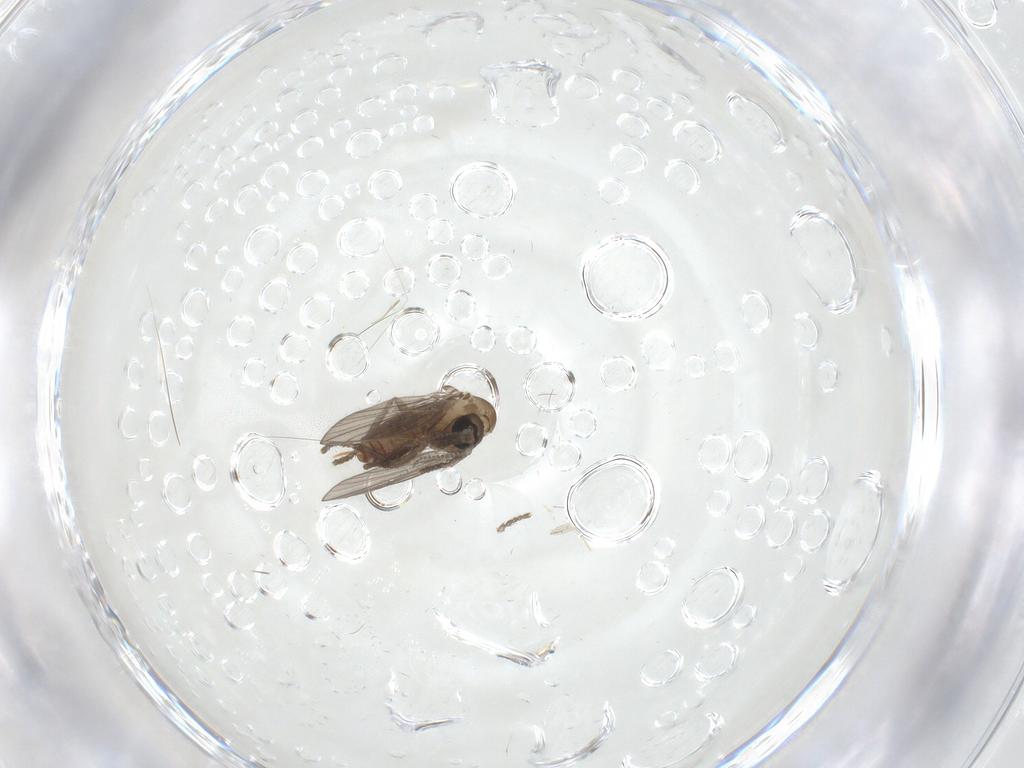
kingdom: Animalia
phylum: Arthropoda
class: Insecta
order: Diptera
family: Psychodidae
